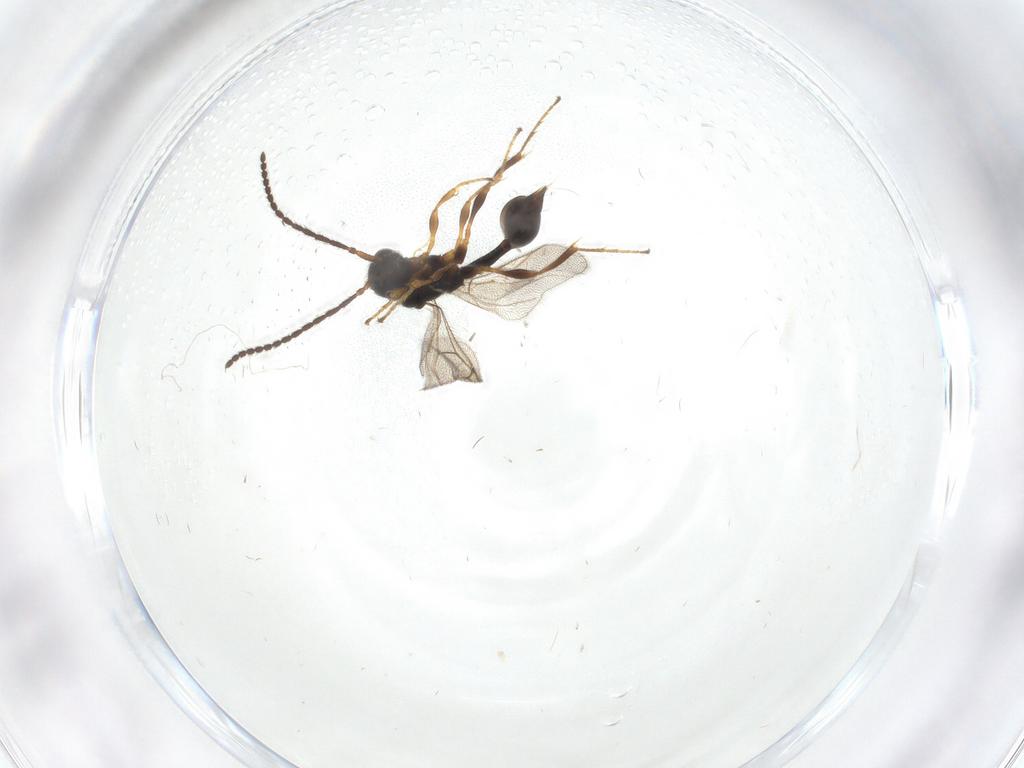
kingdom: Animalia
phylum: Arthropoda
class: Insecta
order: Hymenoptera
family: Diapriidae
